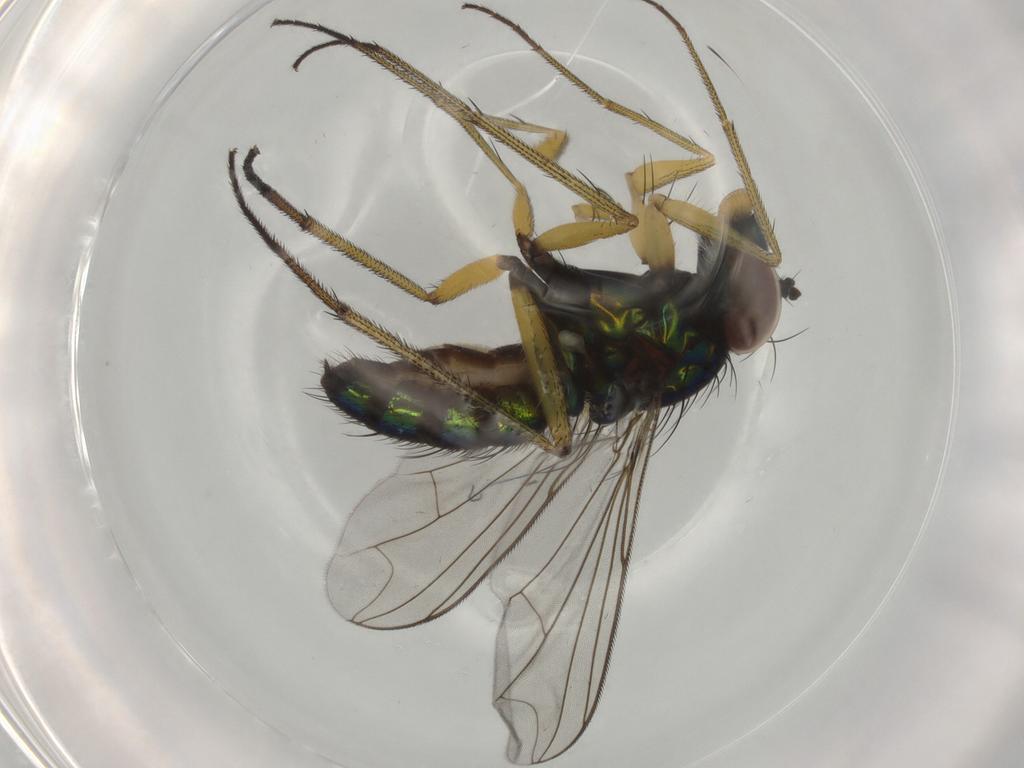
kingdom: Animalia
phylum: Arthropoda
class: Insecta
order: Diptera
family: Dolichopodidae
